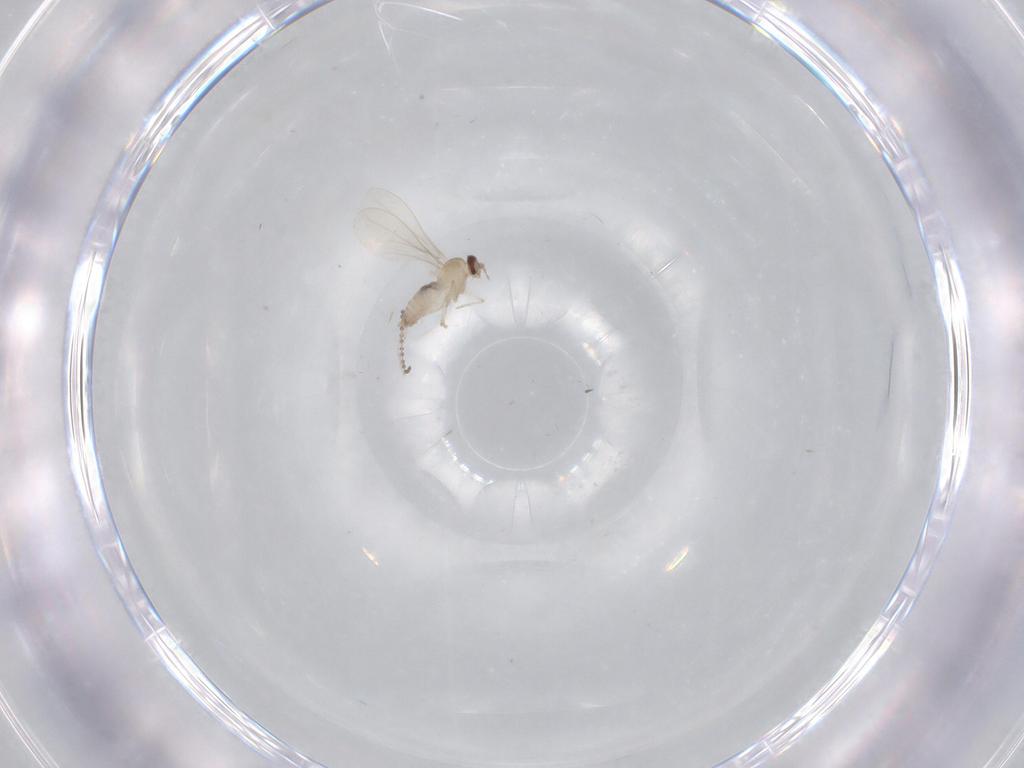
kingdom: Animalia
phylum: Arthropoda
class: Insecta
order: Diptera
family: Cecidomyiidae
